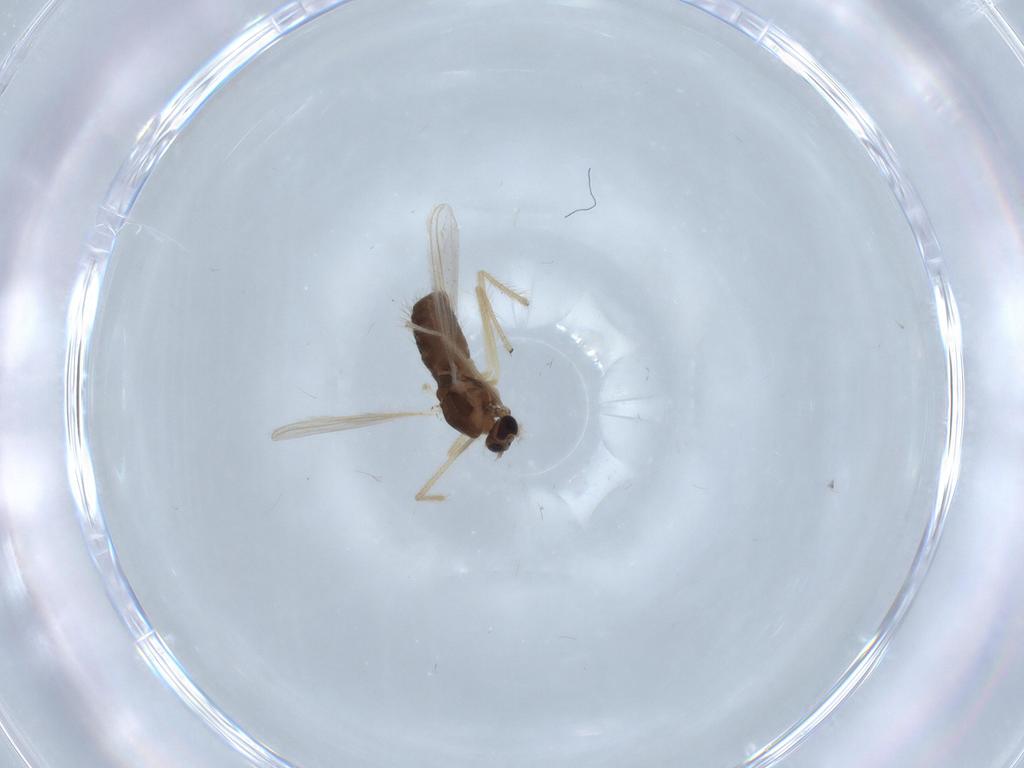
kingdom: Animalia
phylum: Arthropoda
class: Insecta
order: Diptera
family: Chironomidae
